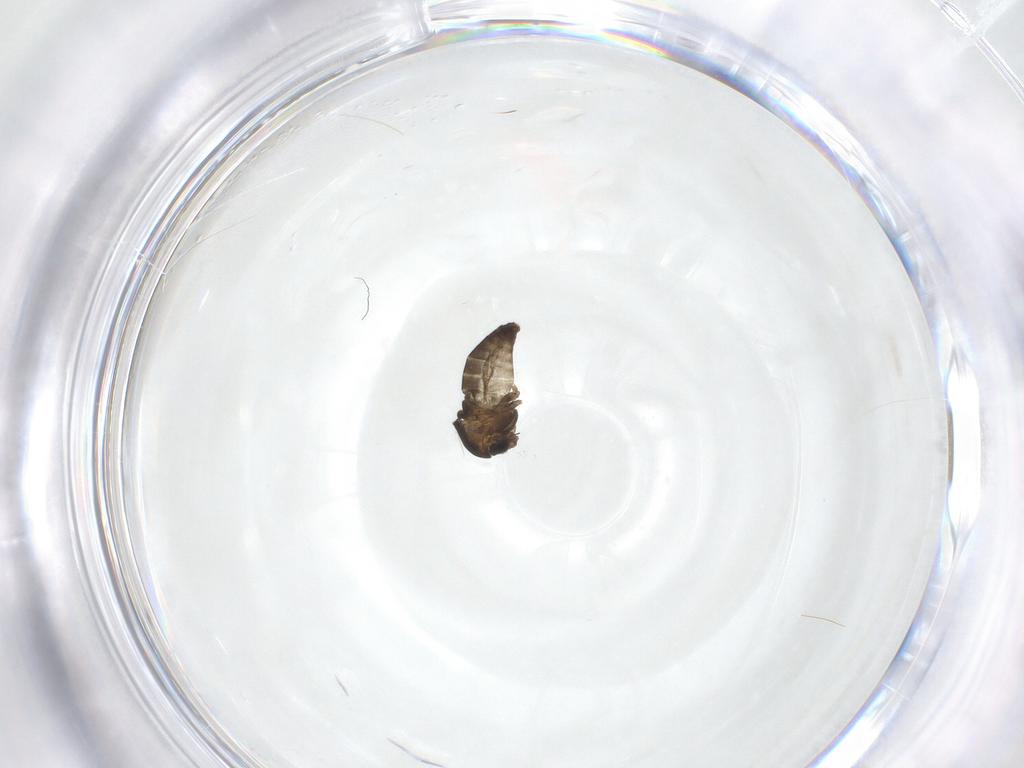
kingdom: Animalia
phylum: Arthropoda
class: Insecta
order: Diptera
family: Chironomidae
